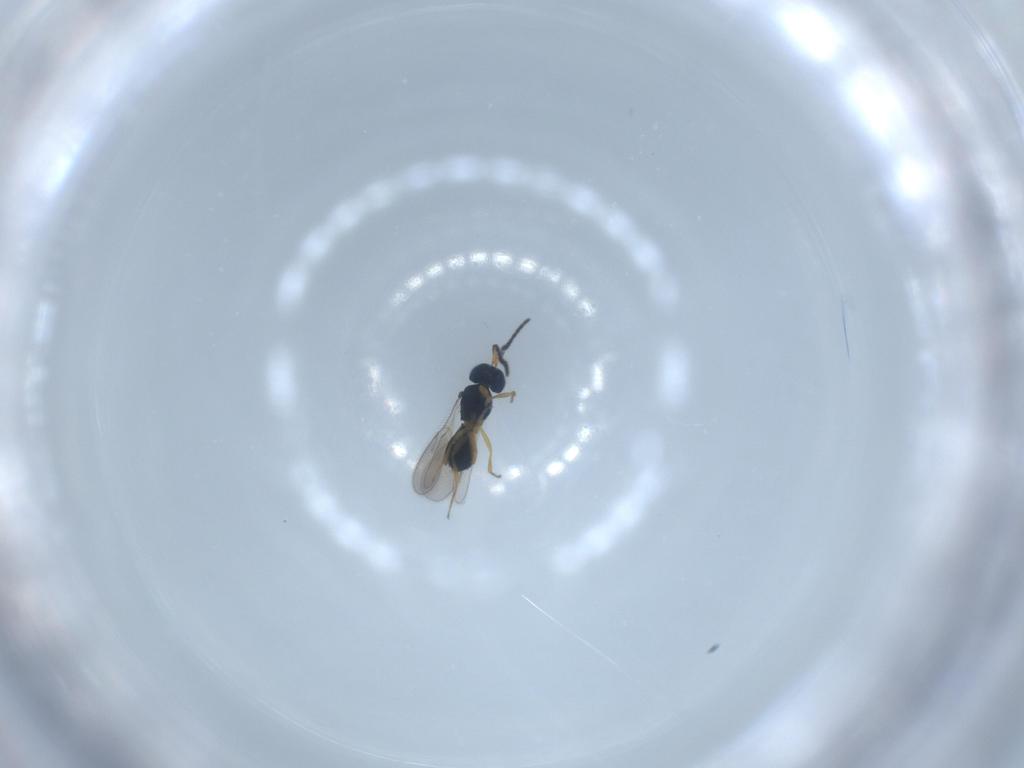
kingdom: Animalia
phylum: Arthropoda
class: Insecta
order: Hymenoptera
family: Scelionidae
